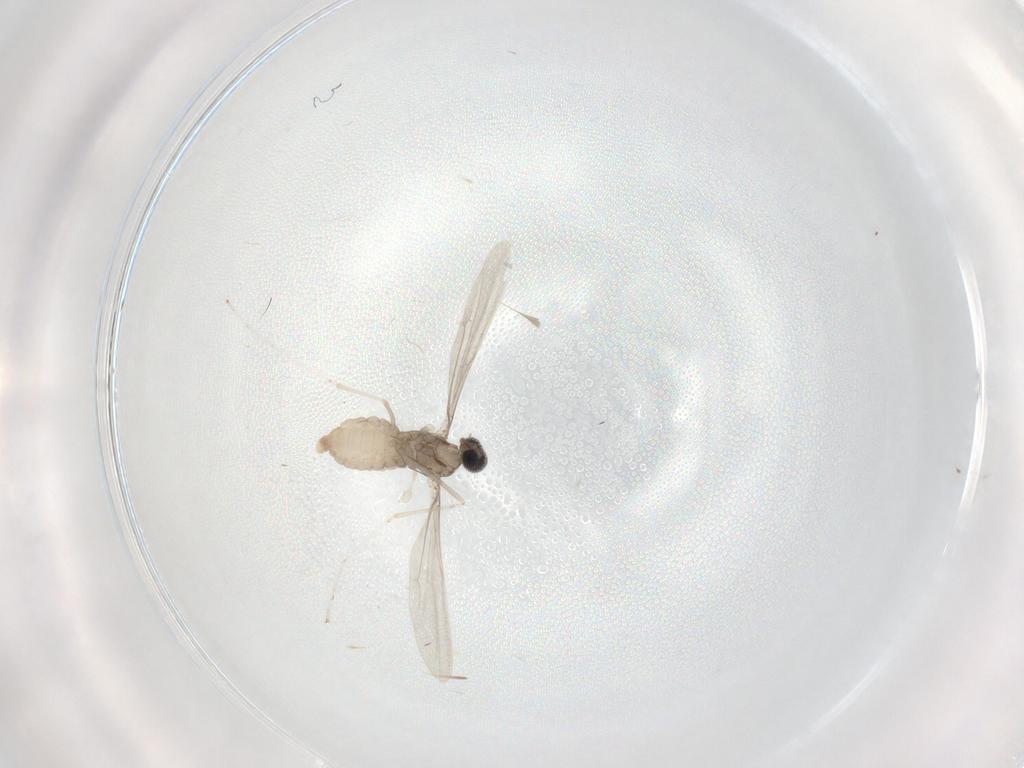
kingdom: Animalia
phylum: Arthropoda
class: Insecta
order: Diptera
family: Cecidomyiidae
